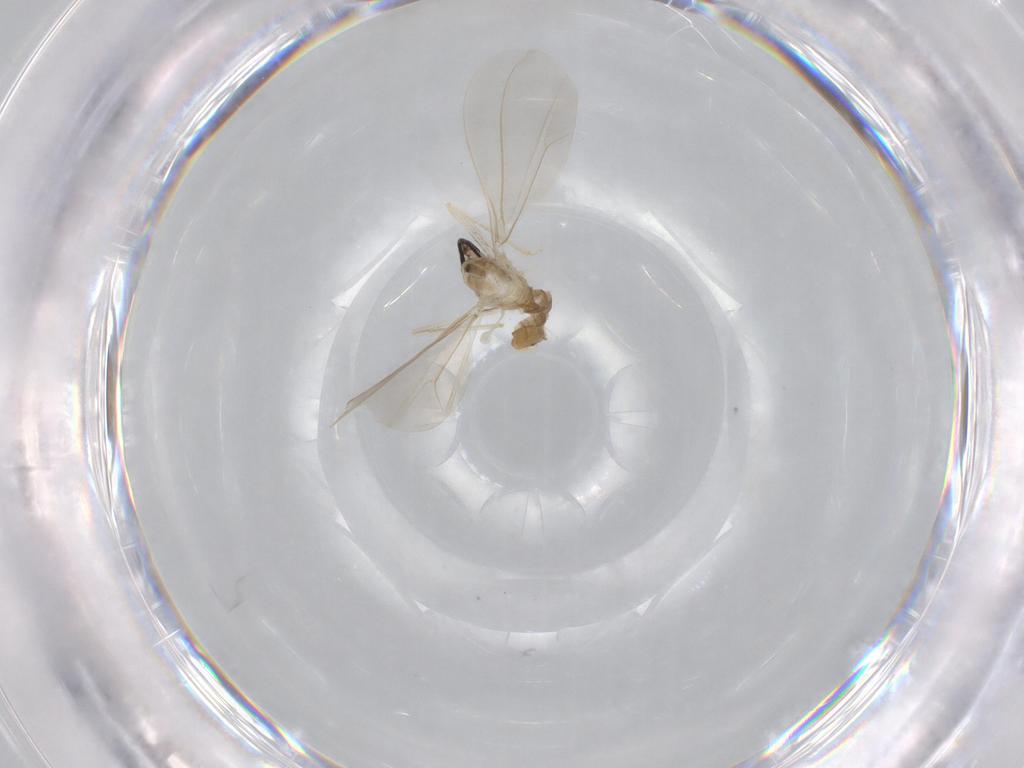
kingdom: Animalia
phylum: Arthropoda
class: Insecta
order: Diptera
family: Cecidomyiidae
